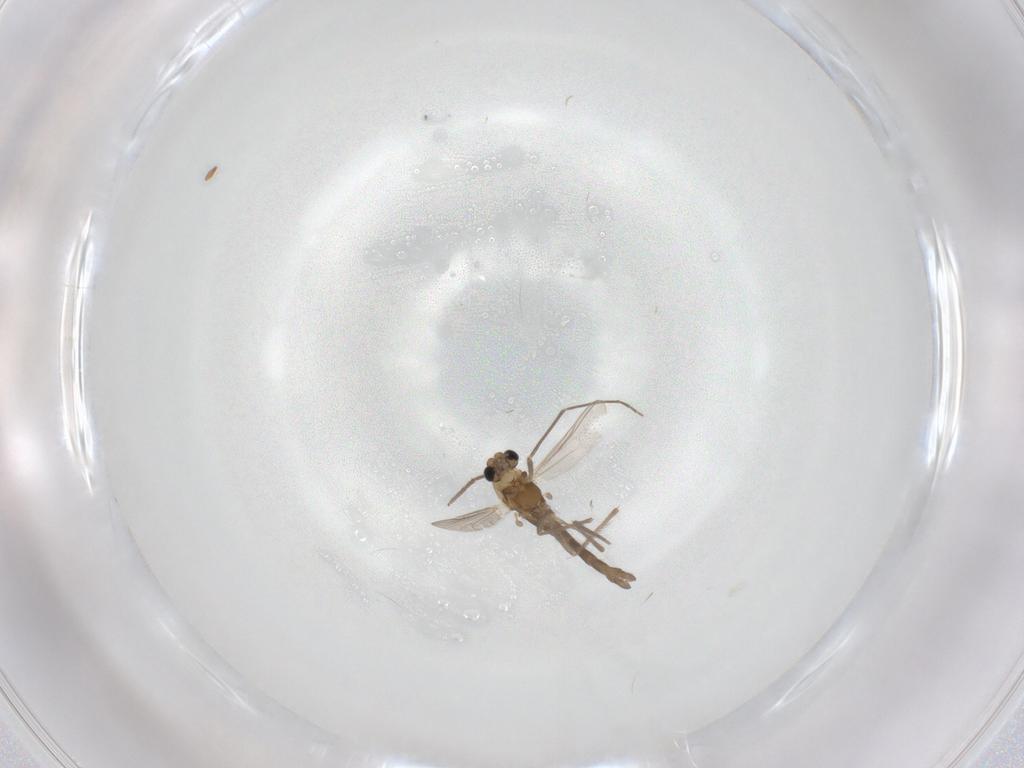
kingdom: Animalia
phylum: Arthropoda
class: Insecta
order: Diptera
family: Chironomidae
